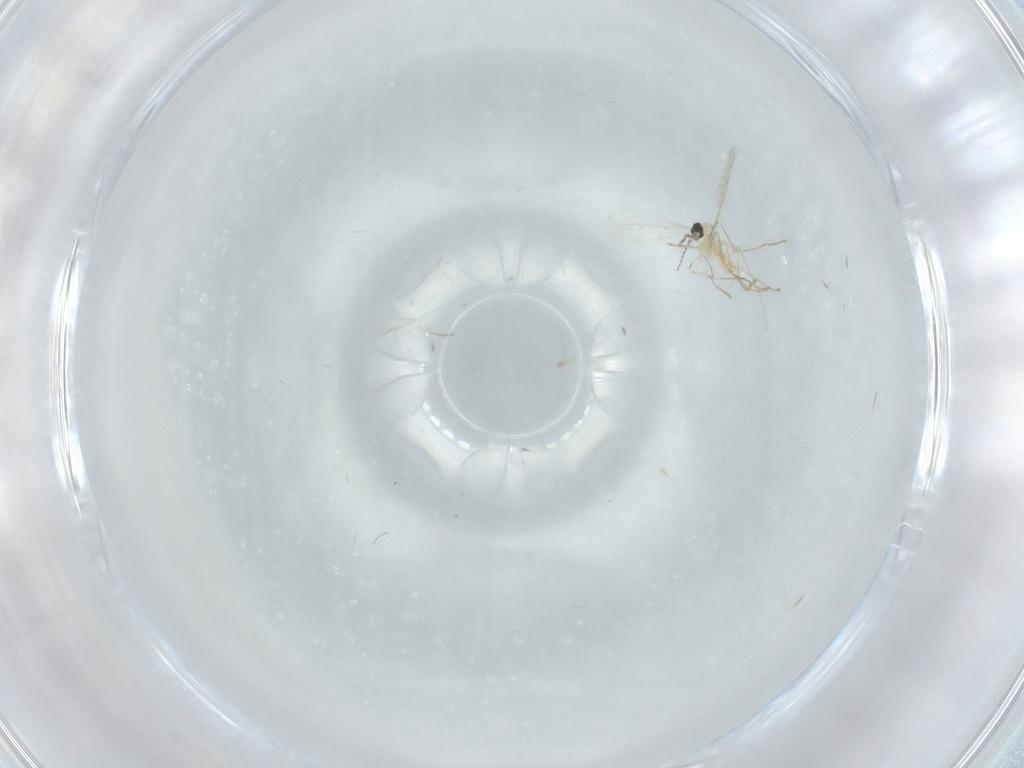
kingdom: Animalia
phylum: Arthropoda
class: Insecta
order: Diptera
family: Cecidomyiidae
